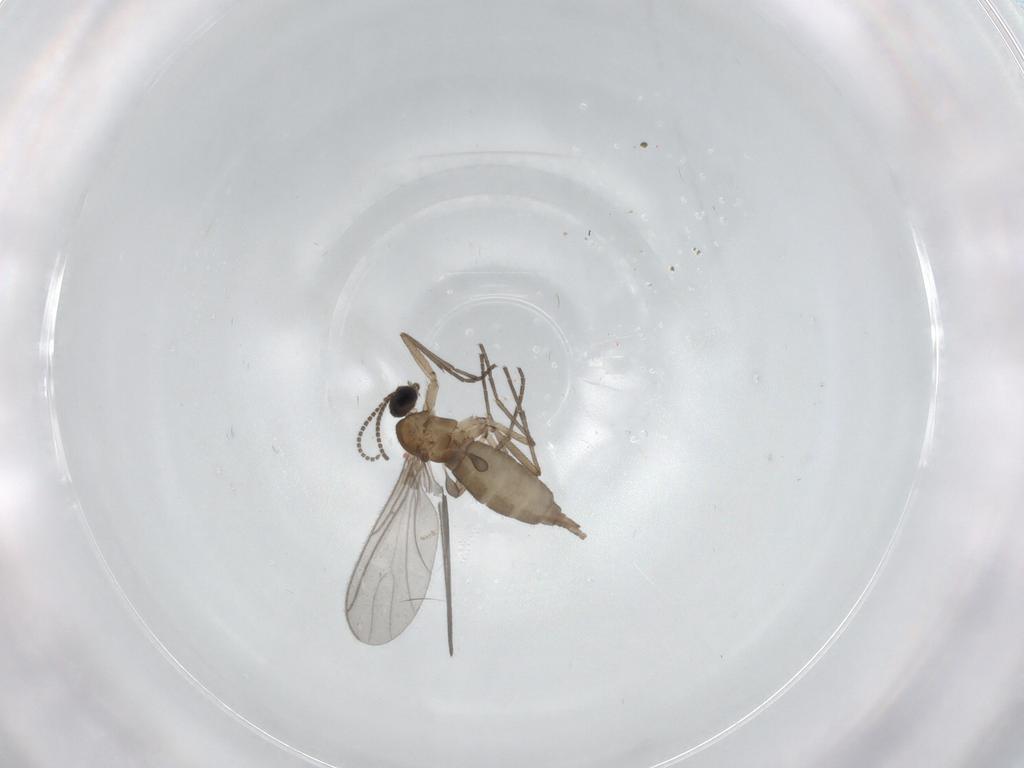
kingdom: Animalia
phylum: Arthropoda
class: Insecta
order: Diptera
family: Sciaridae
